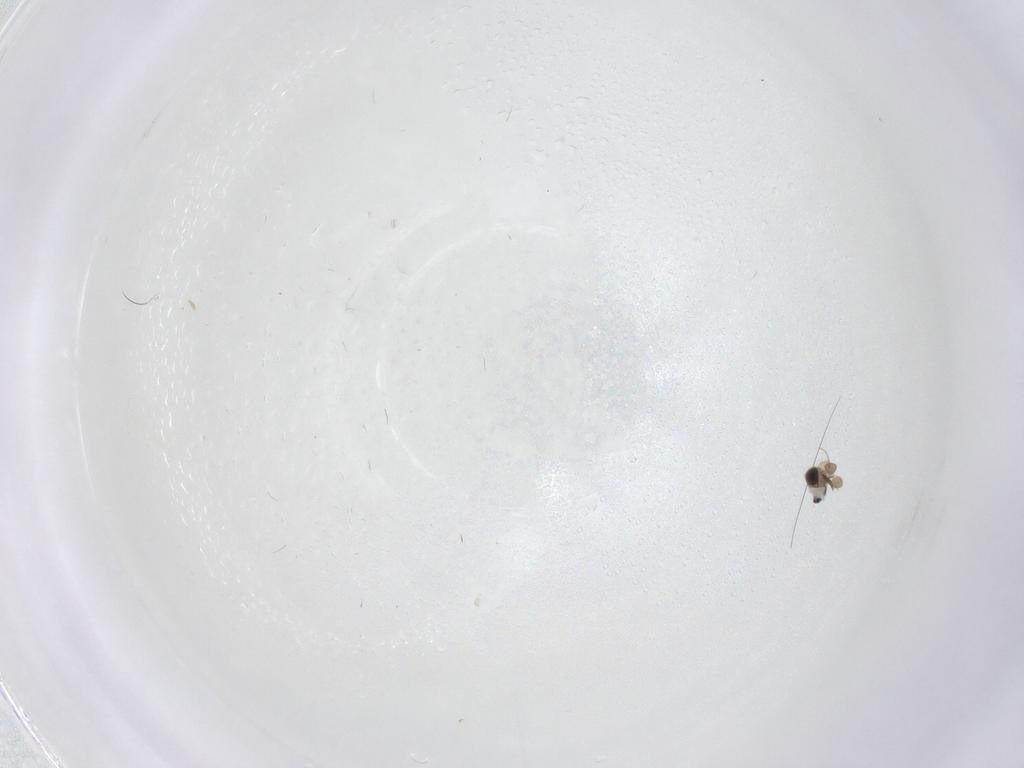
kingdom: Animalia
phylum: Arthropoda
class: Insecta
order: Diptera
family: Phoridae
